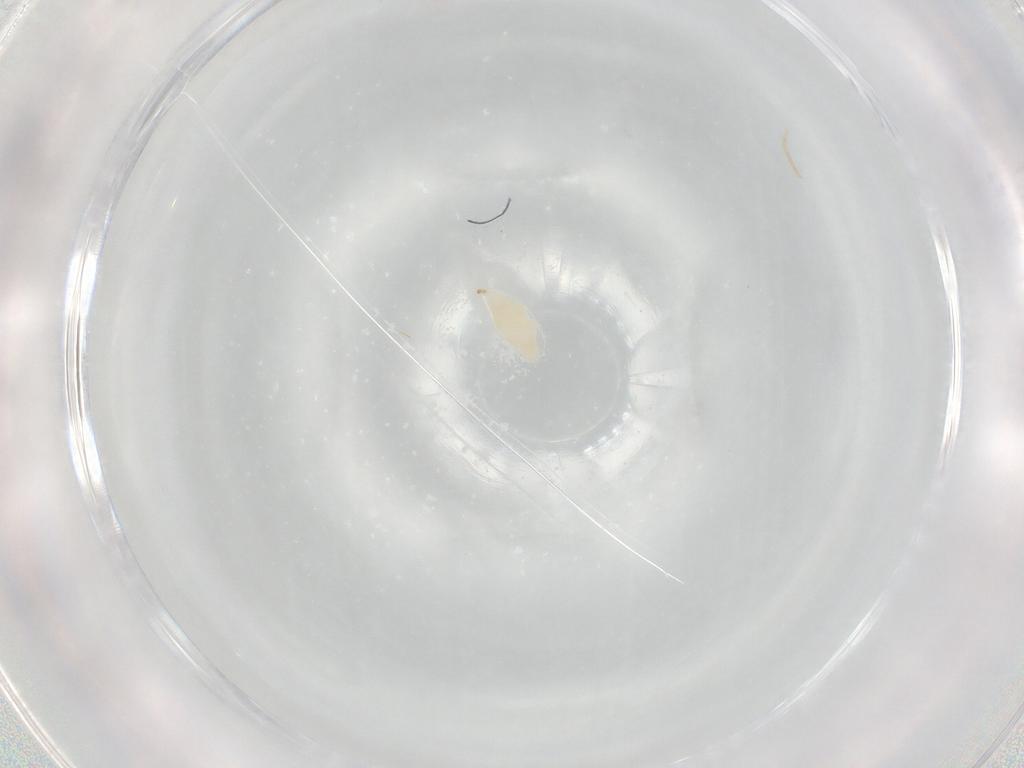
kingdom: Animalia
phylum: Arthropoda
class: Insecta
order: Hymenoptera
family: Ichneumonidae
